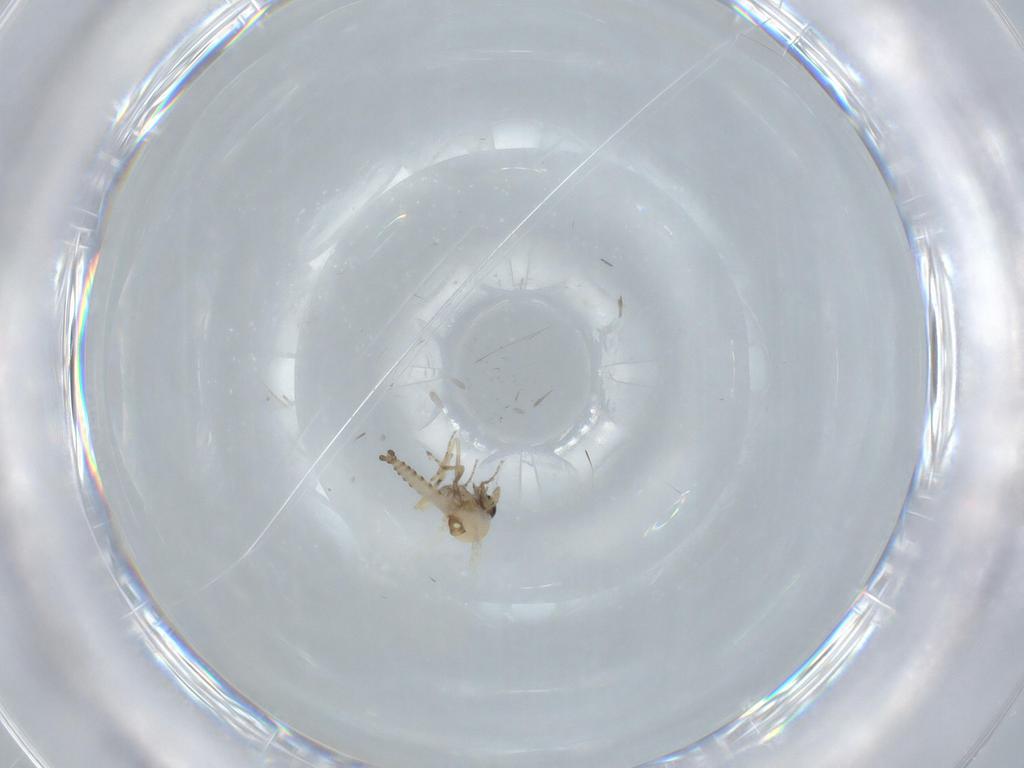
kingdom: Animalia
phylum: Arthropoda
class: Insecta
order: Diptera
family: Ceratopogonidae
